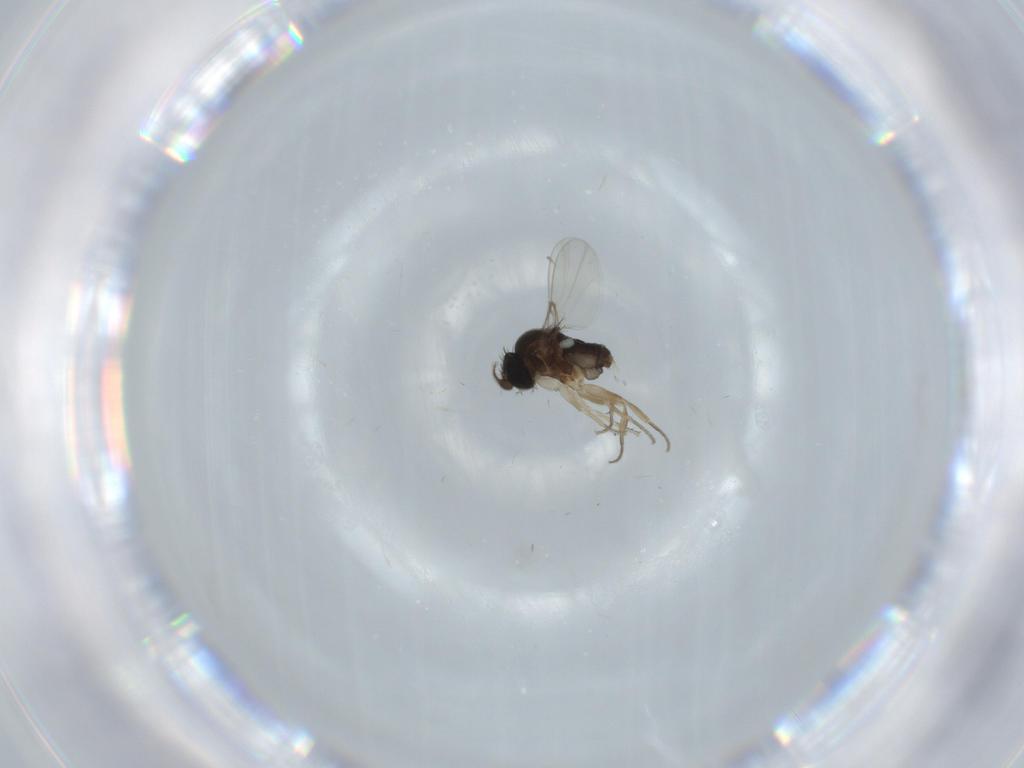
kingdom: Animalia
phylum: Arthropoda
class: Insecta
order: Diptera
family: Phoridae
